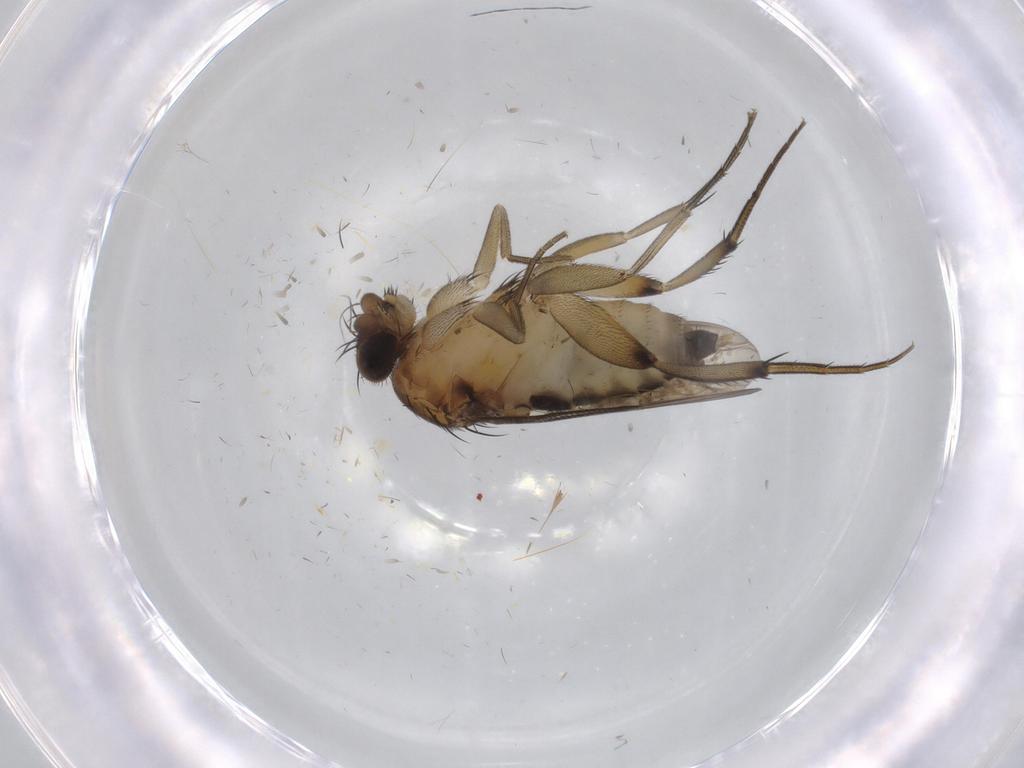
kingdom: Animalia
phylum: Arthropoda
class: Insecta
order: Diptera
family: Phoridae
